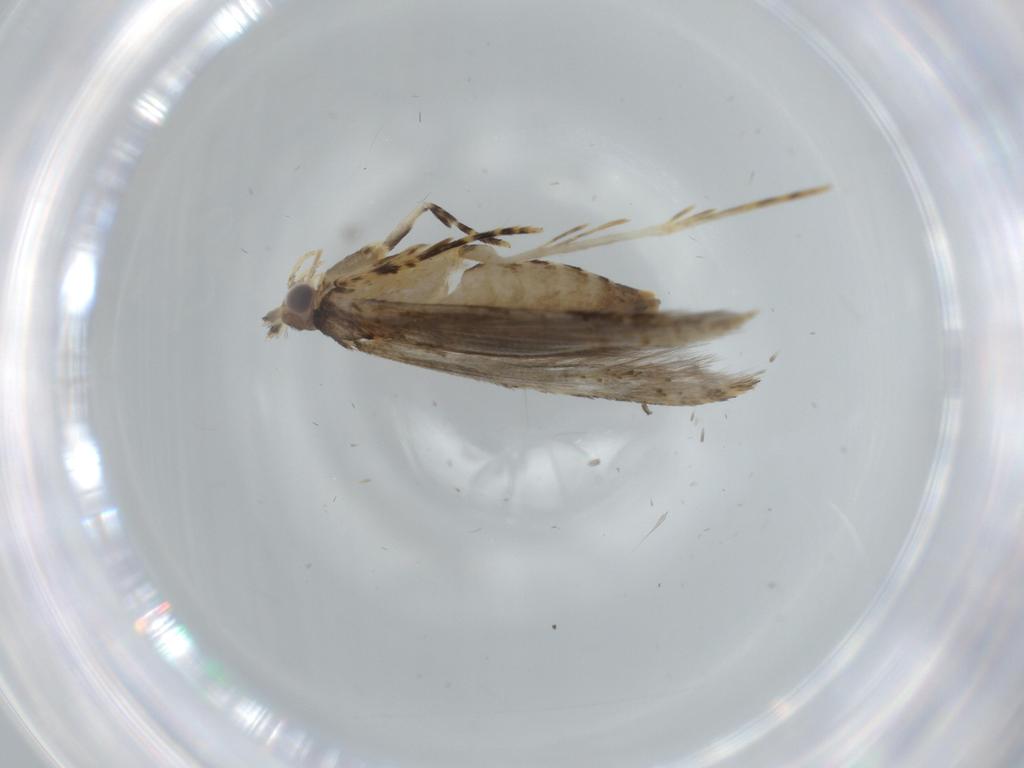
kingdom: Animalia
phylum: Arthropoda
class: Insecta
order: Lepidoptera
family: Tineidae
